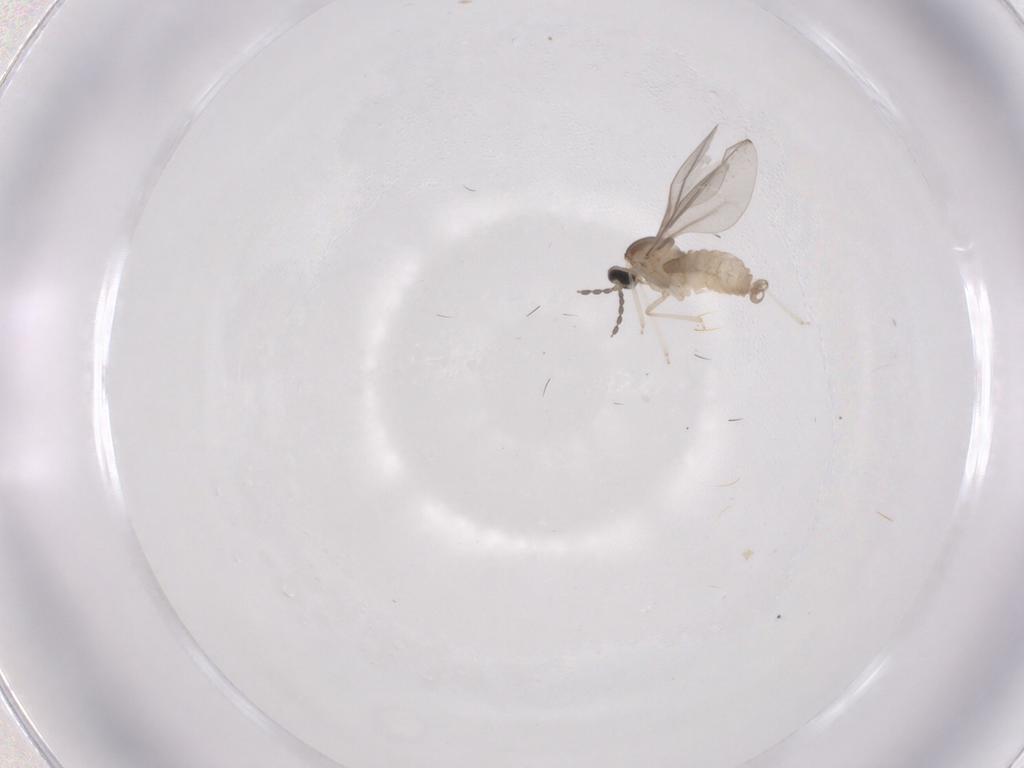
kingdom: Animalia
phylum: Arthropoda
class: Insecta
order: Diptera
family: Cecidomyiidae
